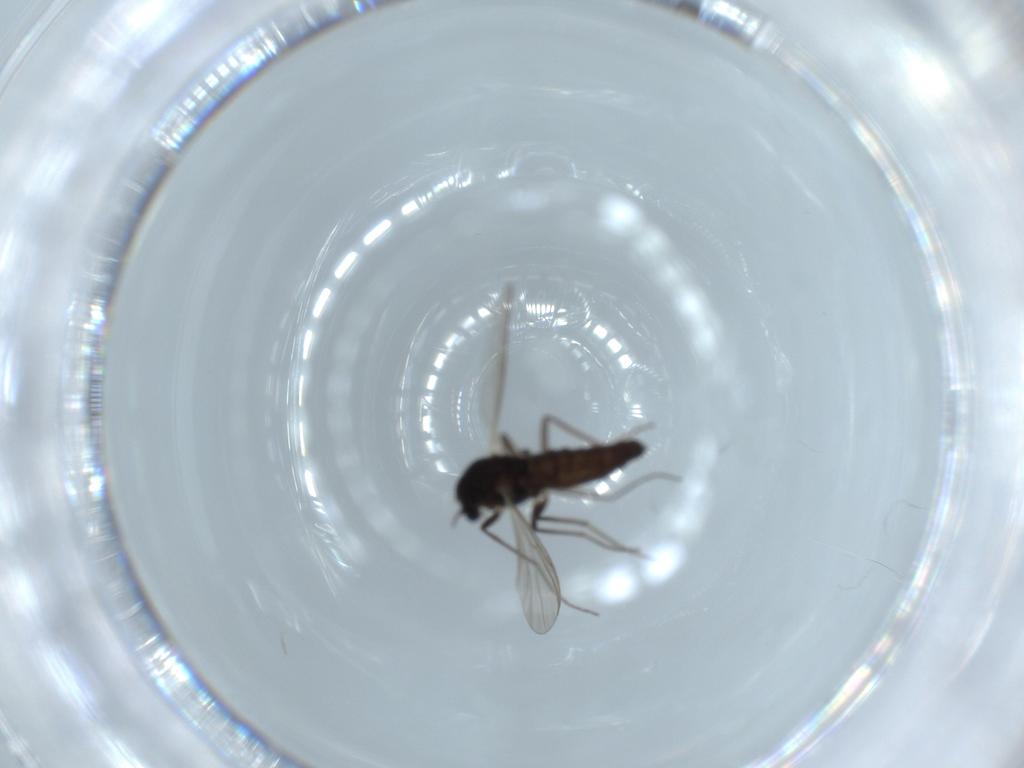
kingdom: Animalia
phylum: Arthropoda
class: Insecta
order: Diptera
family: Chironomidae
